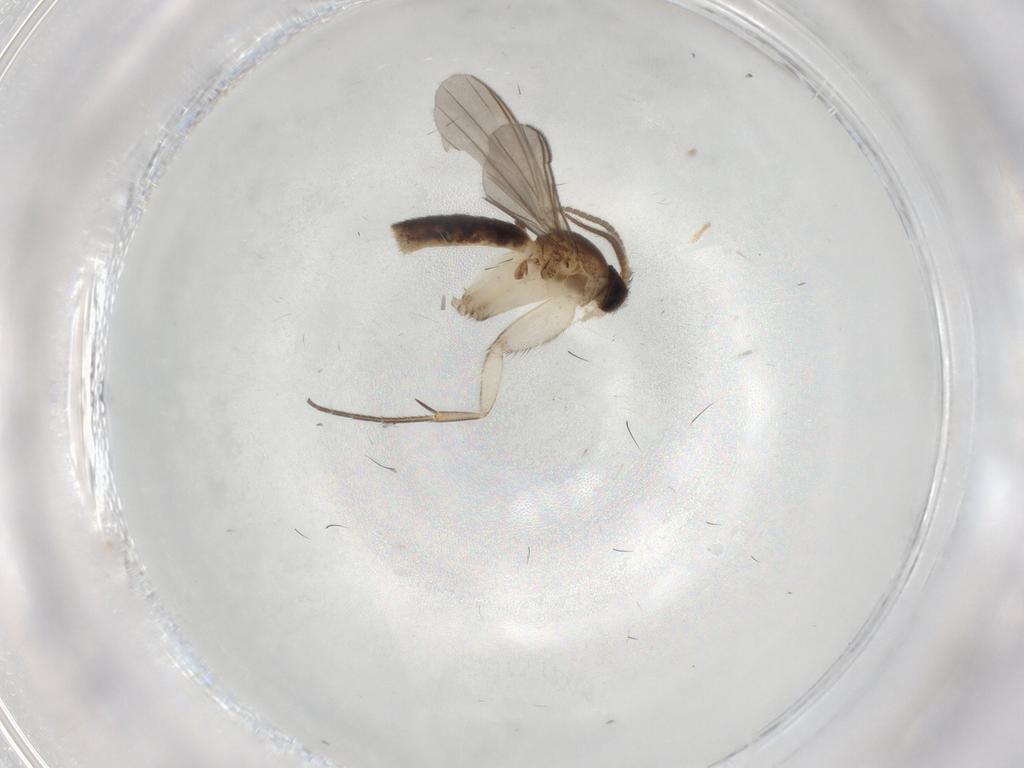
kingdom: Animalia
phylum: Arthropoda
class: Insecta
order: Diptera
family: Mycetophilidae
